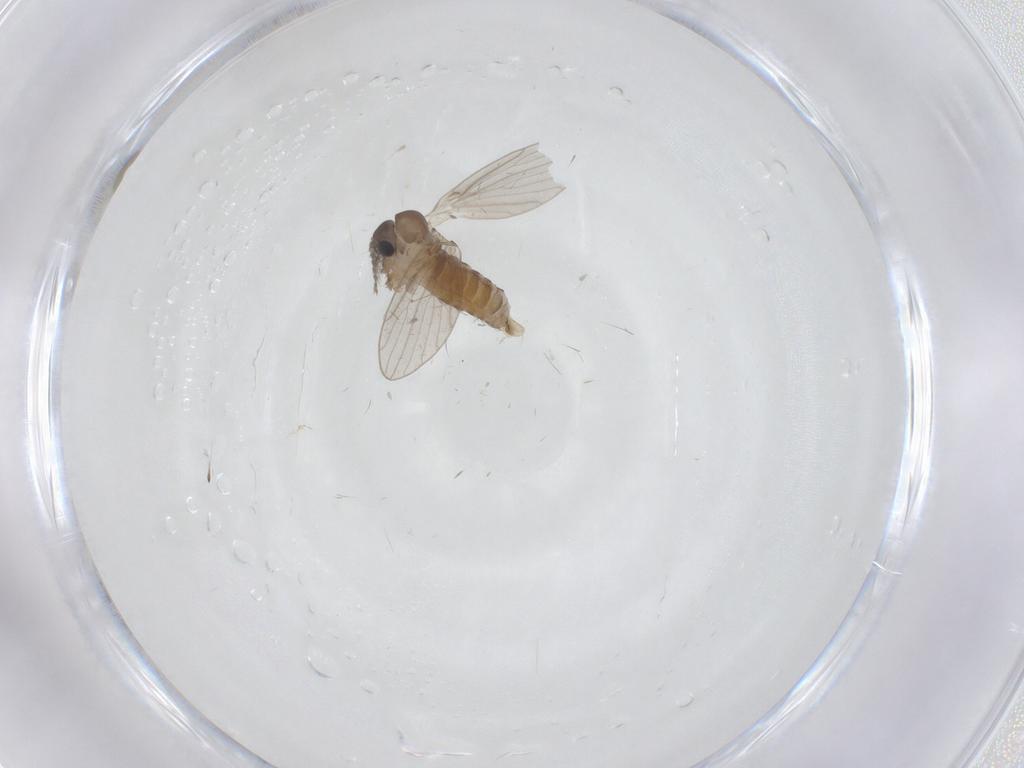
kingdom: Animalia
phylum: Arthropoda
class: Insecta
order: Diptera
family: Psychodidae
